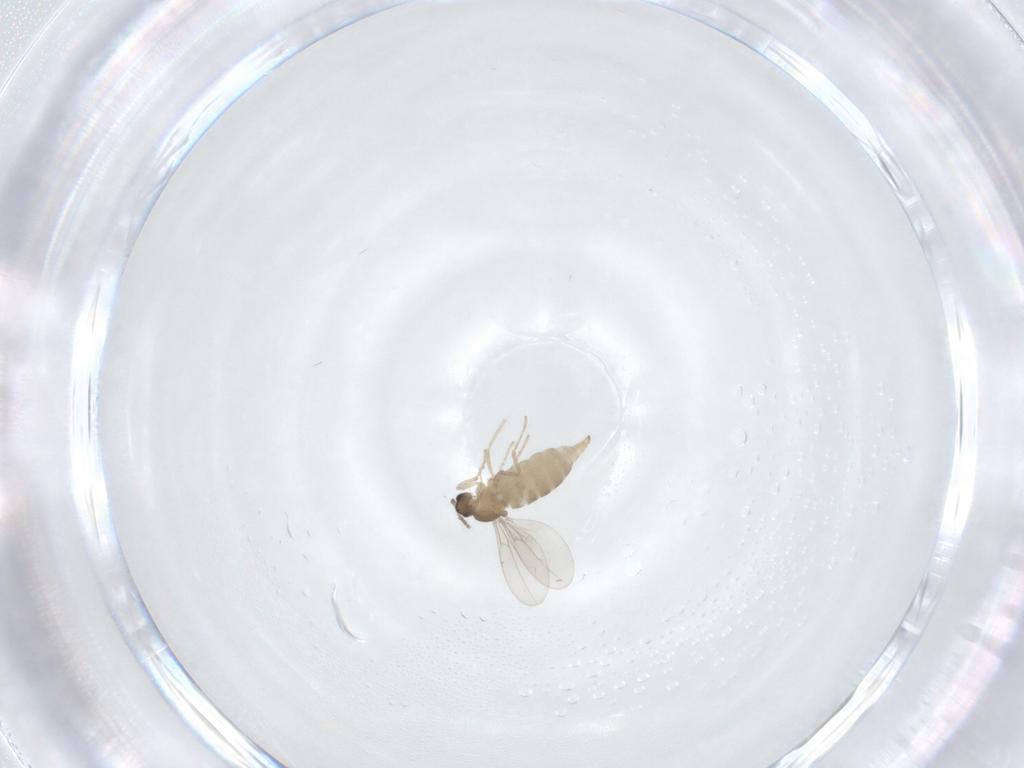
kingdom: Animalia
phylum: Arthropoda
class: Insecta
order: Diptera
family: Cecidomyiidae
